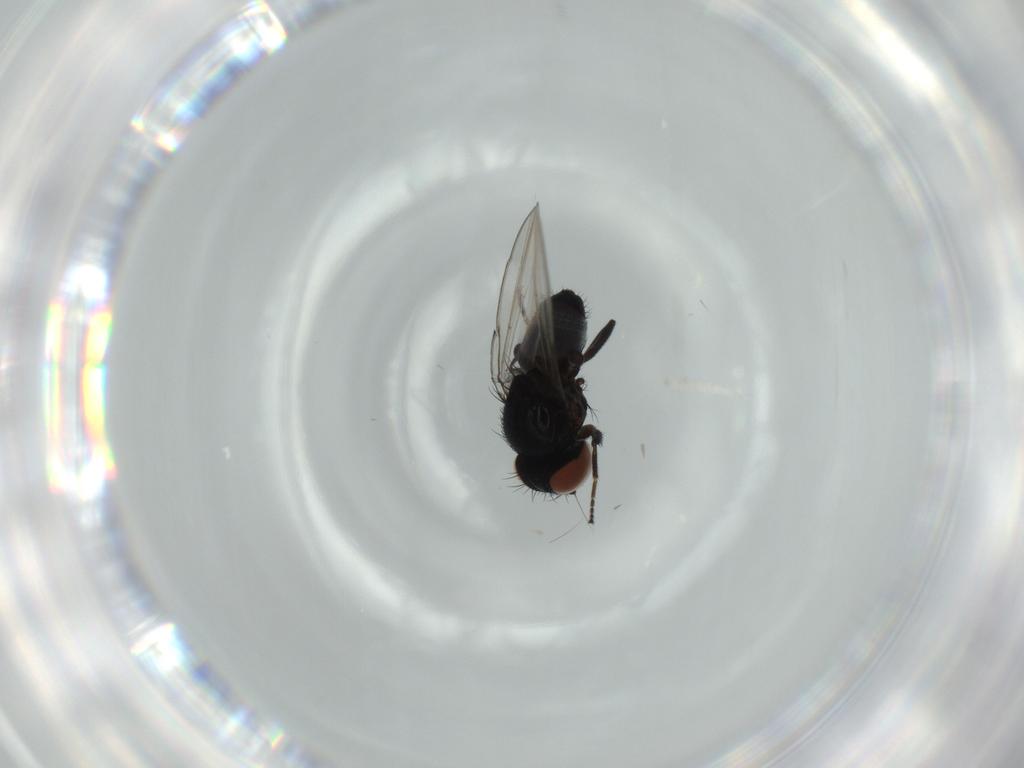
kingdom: Animalia
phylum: Arthropoda
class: Insecta
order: Diptera
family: Milichiidae
